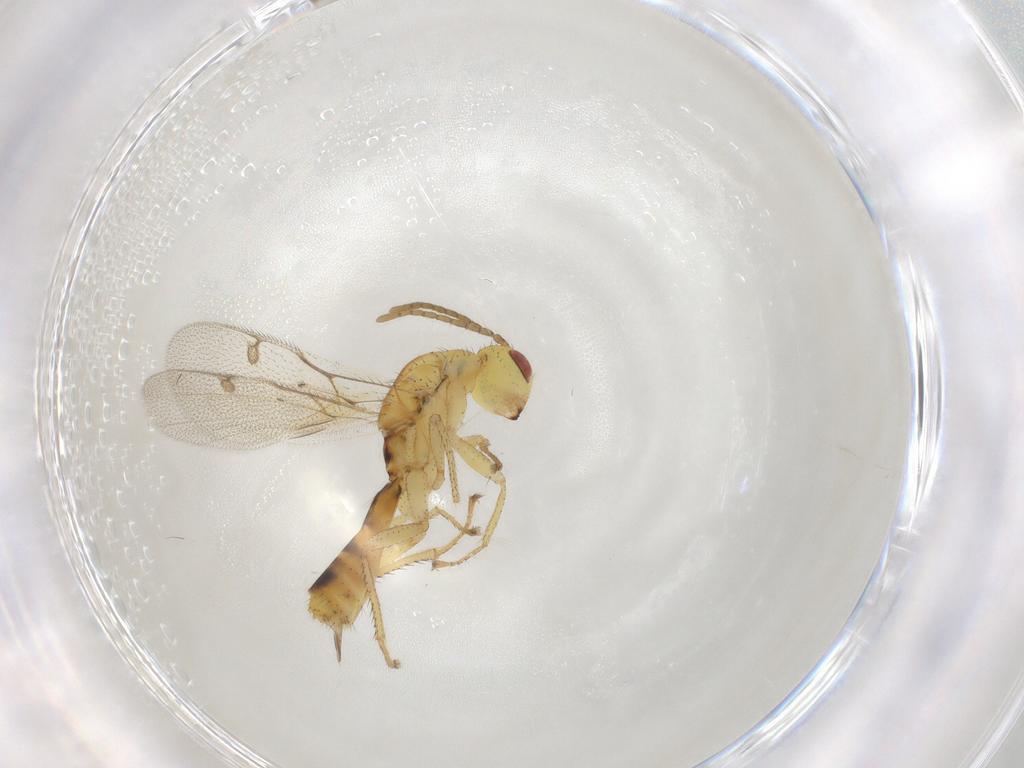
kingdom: Animalia
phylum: Arthropoda
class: Insecta
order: Hymenoptera
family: Megastigmidae
